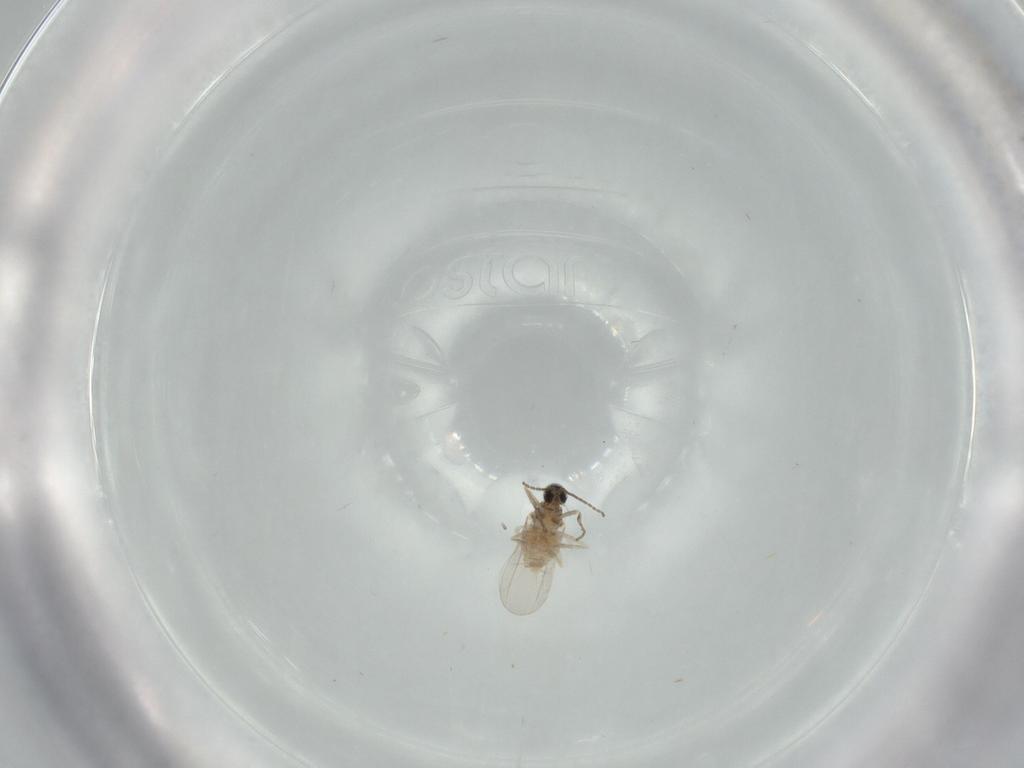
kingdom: Animalia
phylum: Arthropoda
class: Insecta
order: Diptera
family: Cecidomyiidae
